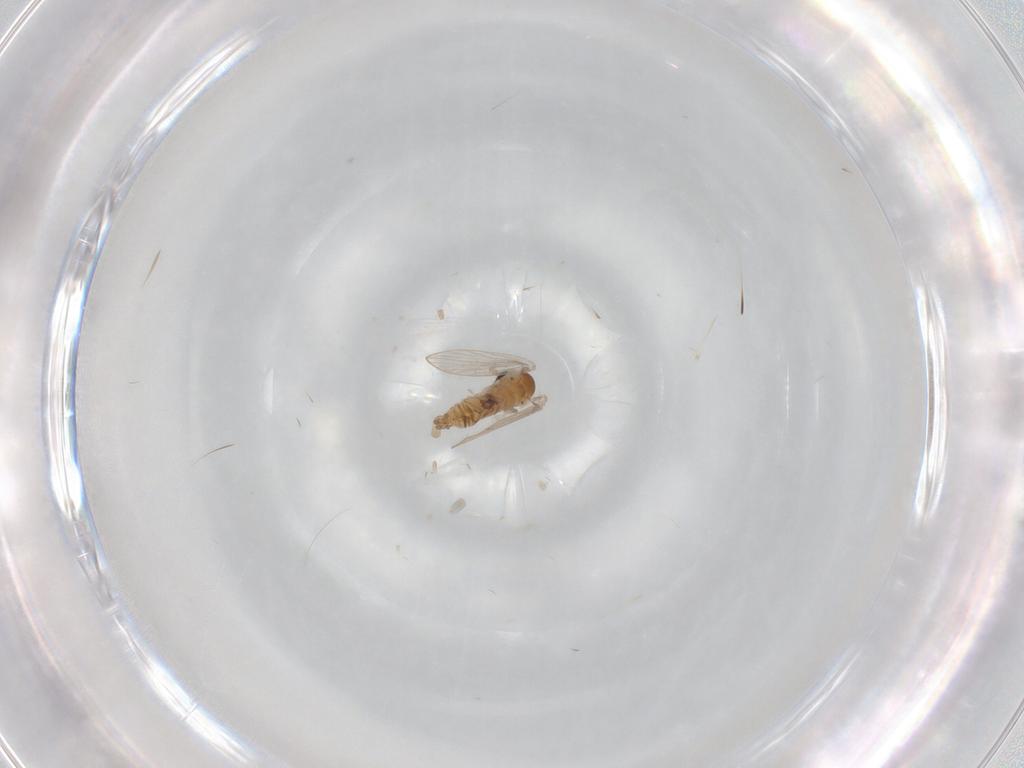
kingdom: Animalia
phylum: Arthropoda
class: Insecta
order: Diptera
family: Psychodidae
